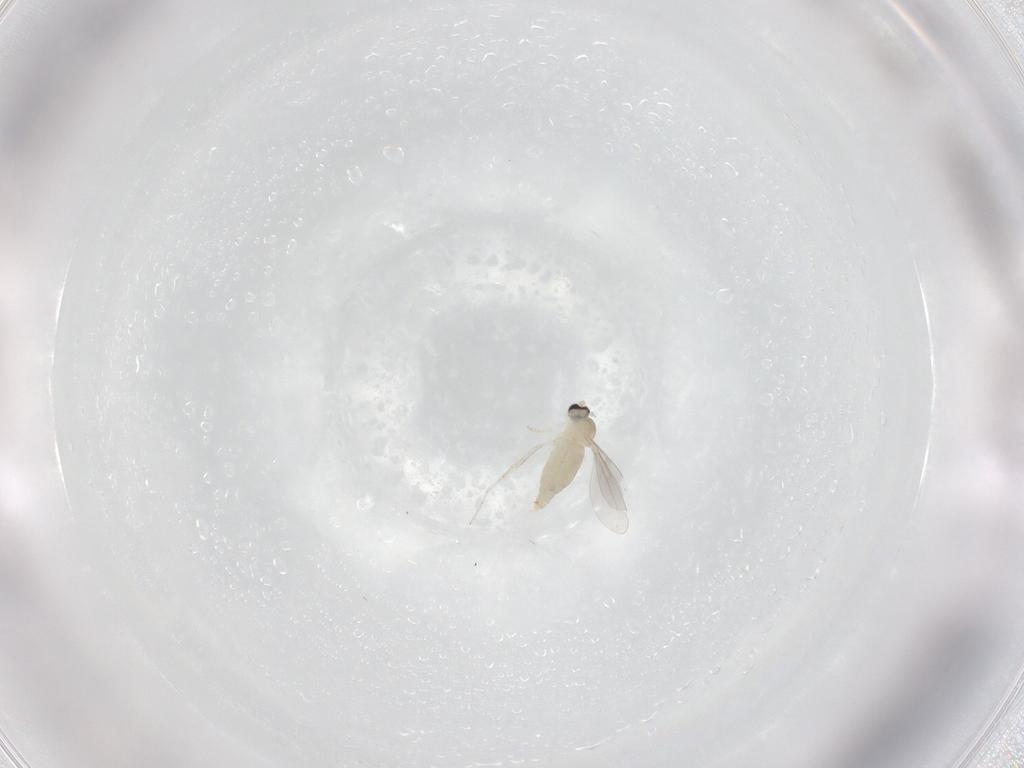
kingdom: Animalia
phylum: Arthropoda
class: Insecta
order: Diptera
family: Cecidomyiidae
